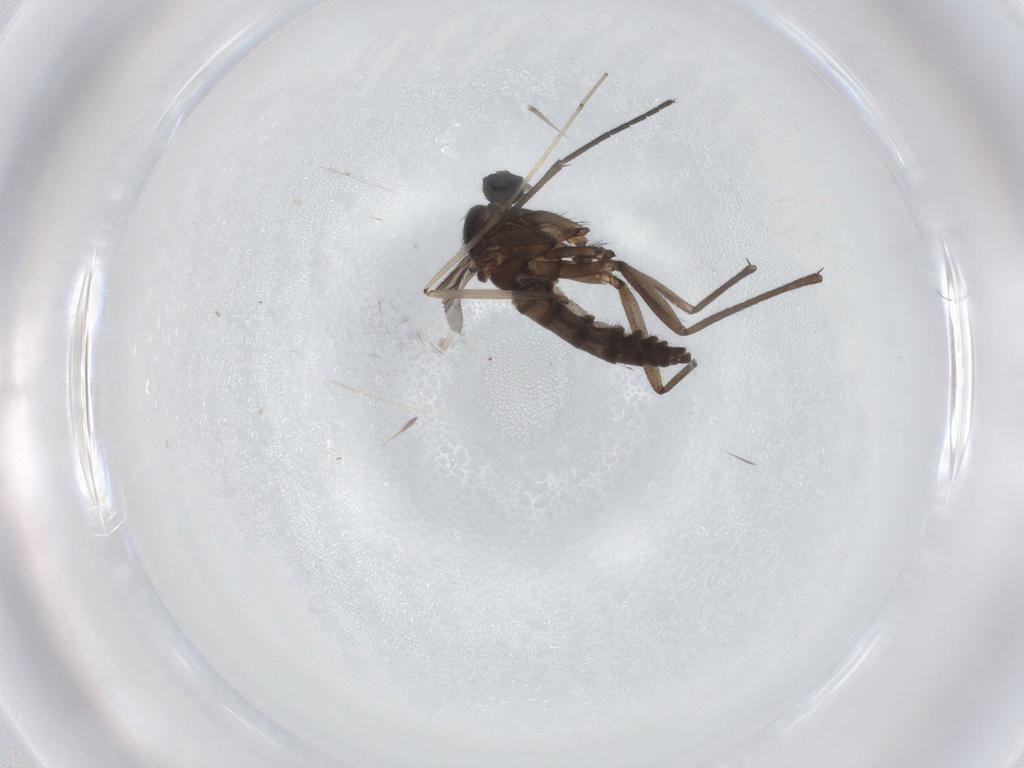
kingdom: Animalia
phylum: Arthropoda
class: Insecta
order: Diptera
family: Cecidomyiidae
